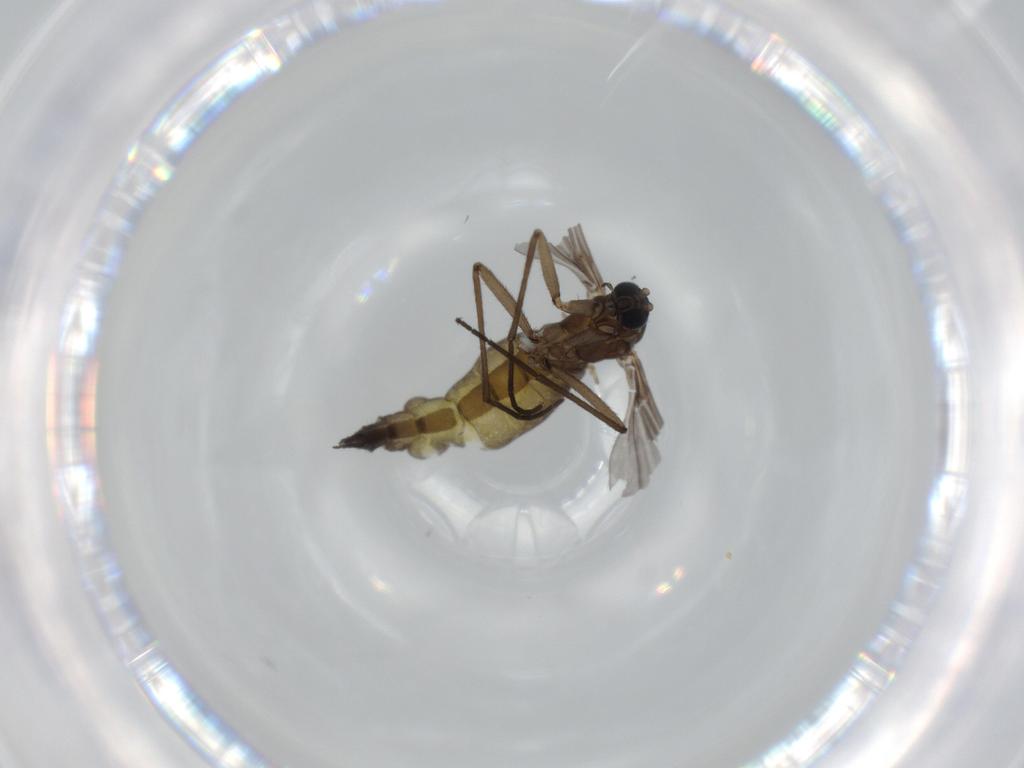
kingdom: Animalia
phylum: Arthropoda
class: Insecta
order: Diptera
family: Sciaridae
